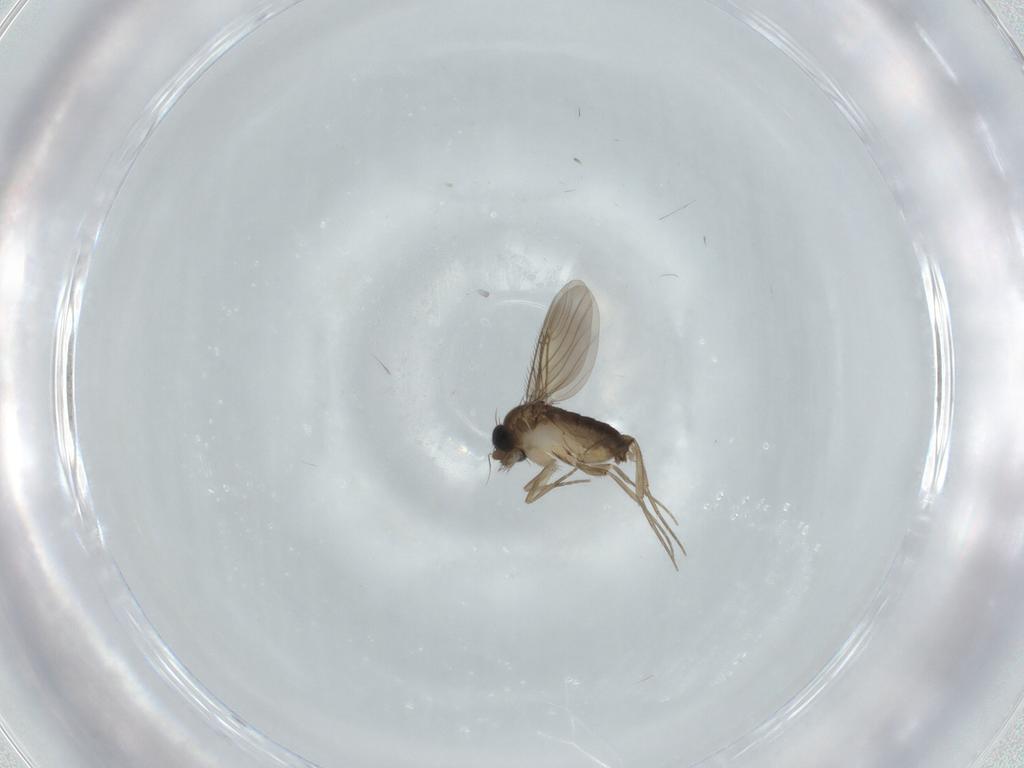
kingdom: Animalia
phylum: Arthropoda
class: Insecta
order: Diptera
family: Phoridae
